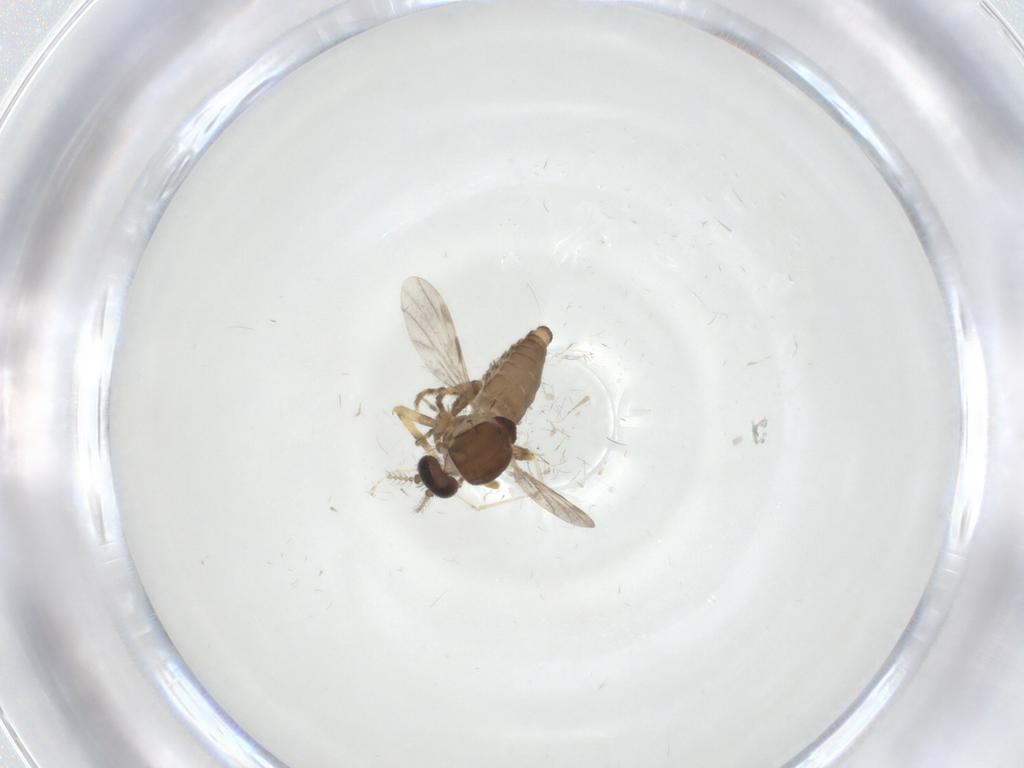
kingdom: Animalia
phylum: Arthropoda
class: Insecta
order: Diptera
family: Ceratopogonidae
